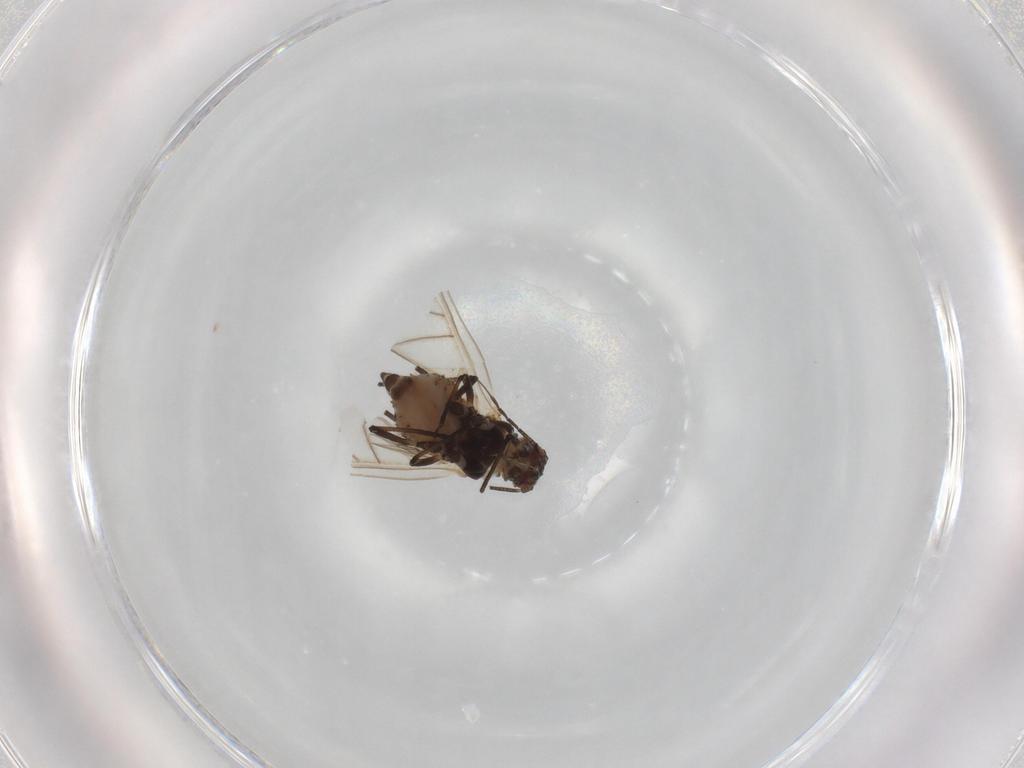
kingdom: Animalia
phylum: Arthropoda
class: Insecta
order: Hemiptera
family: Aphididae
